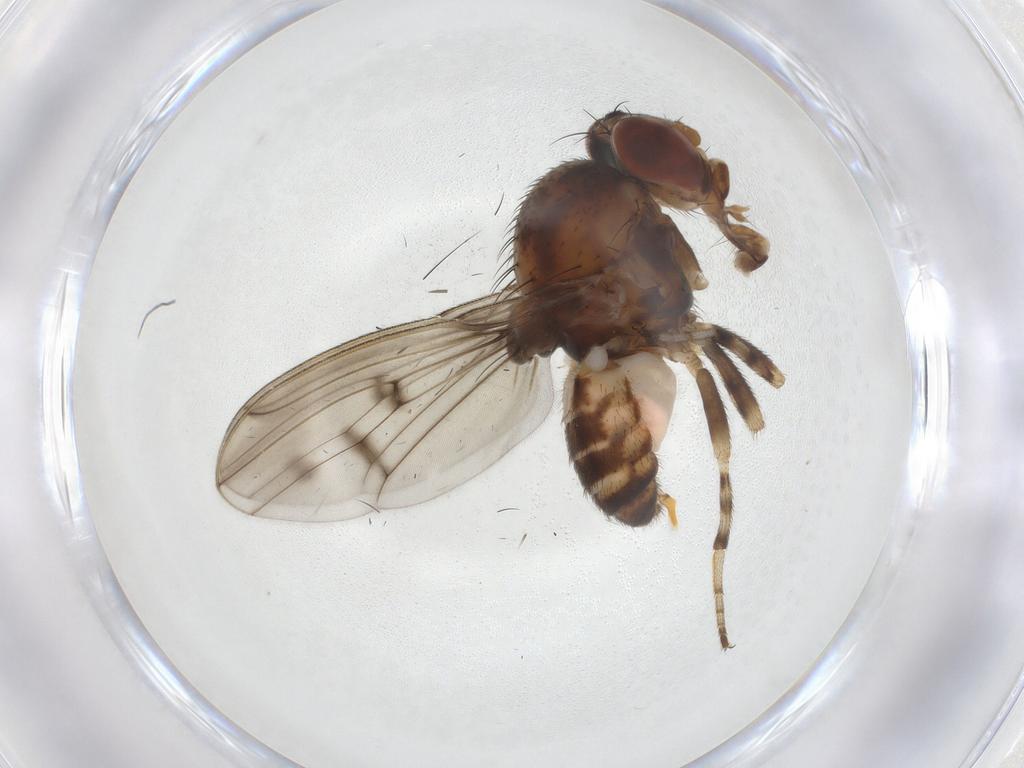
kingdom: Animalia
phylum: Arthropoda
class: Insecta
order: Diptera
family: Drosophilidae
